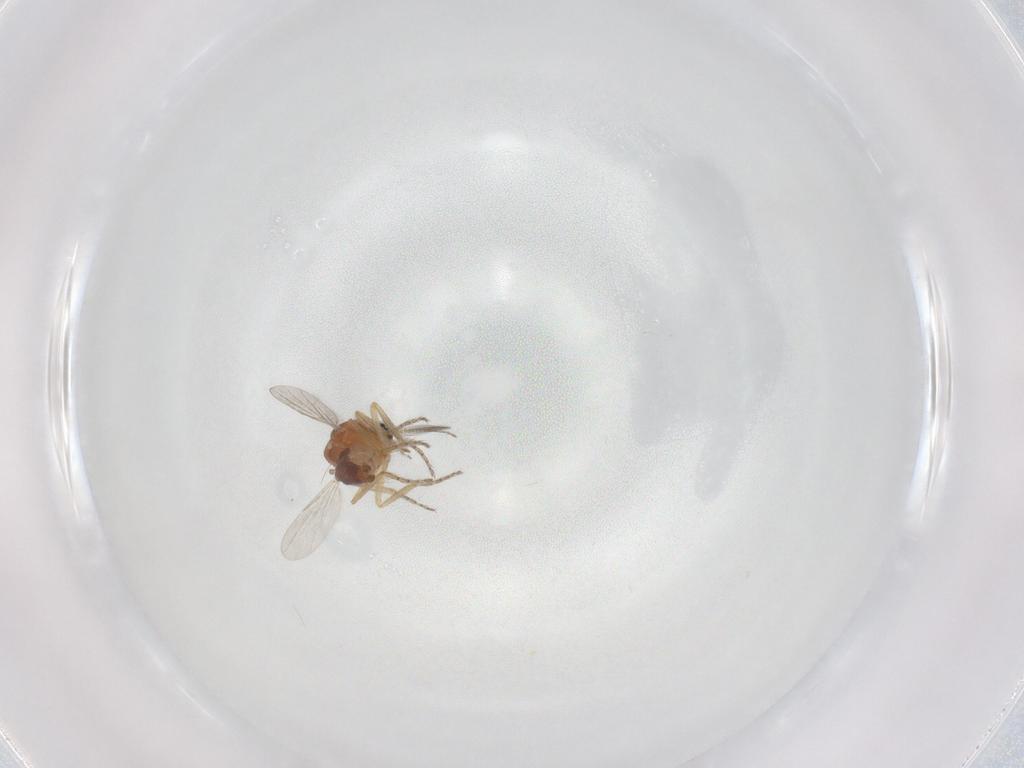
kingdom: Animalia
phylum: Arthropoda
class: Insecta
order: Diptera
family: Ceratopogonidae
